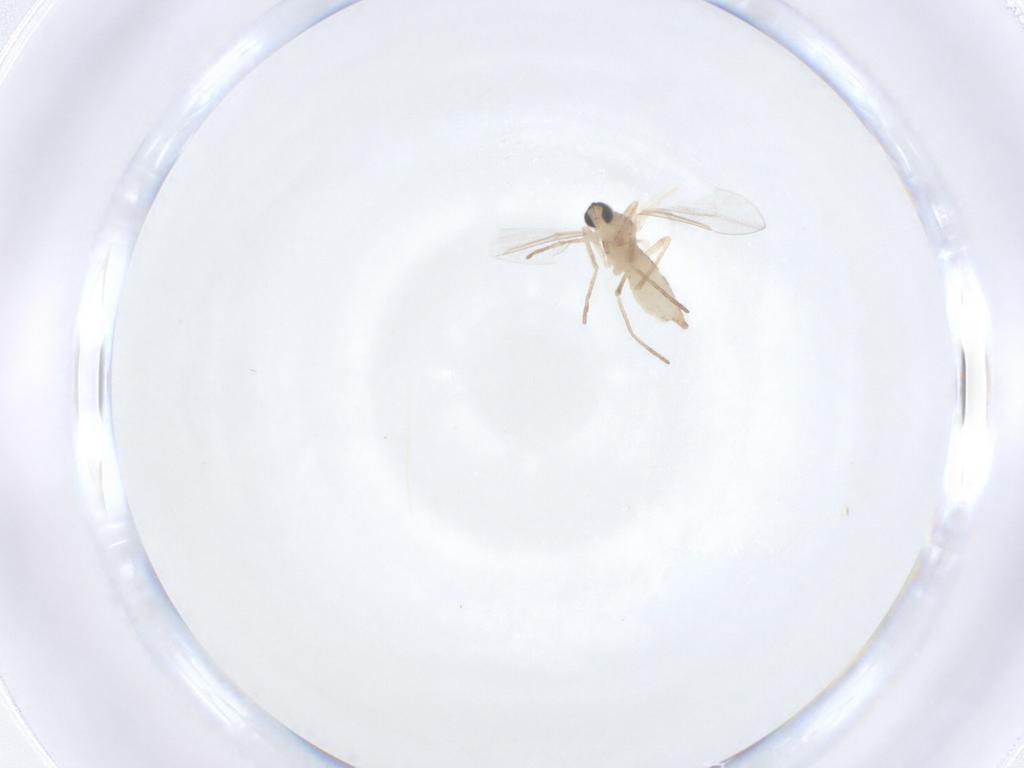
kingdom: Animalia
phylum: Arthropoda
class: Insecta
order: Diptera
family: Cecidomyiidae
